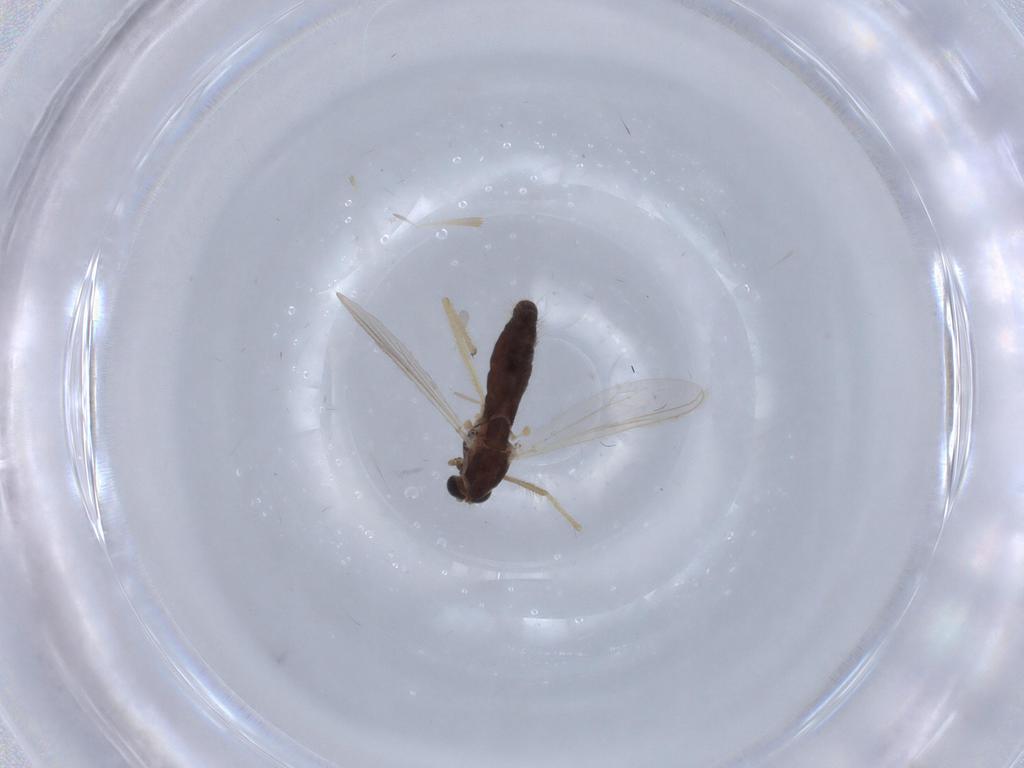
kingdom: Animalia
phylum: Arthropoda
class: Insecta
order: Diptera
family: Chironomidae
